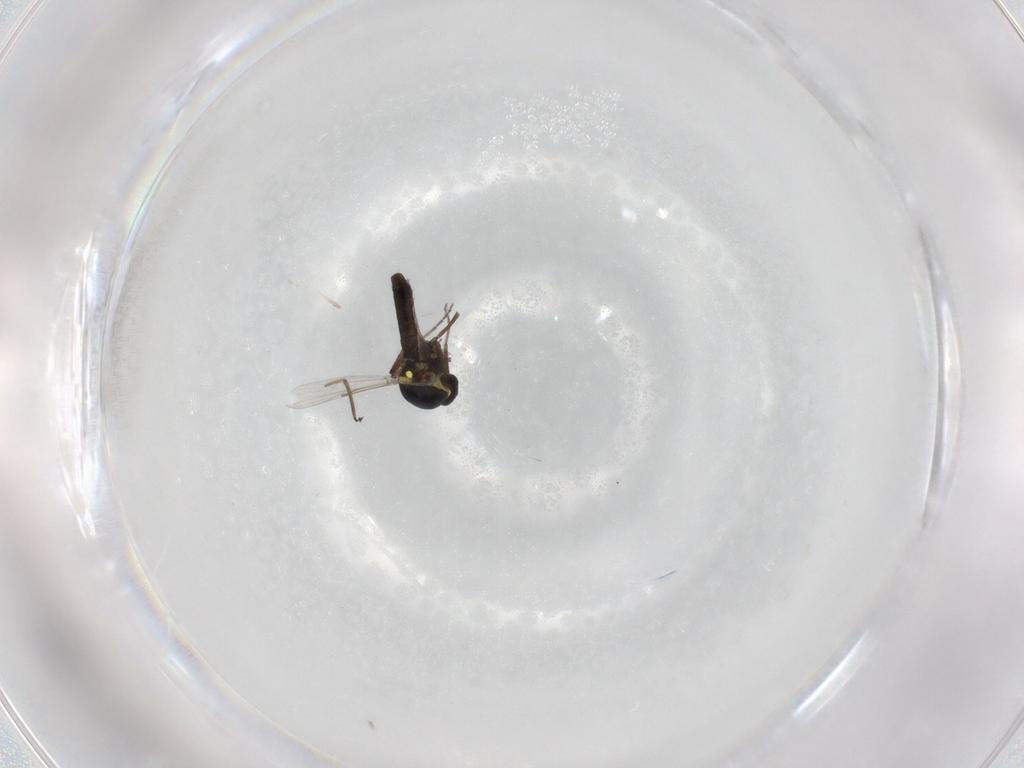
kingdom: Animalia
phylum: Arthropoda
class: Insecta
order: Diptera
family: Ceratopogonidae
